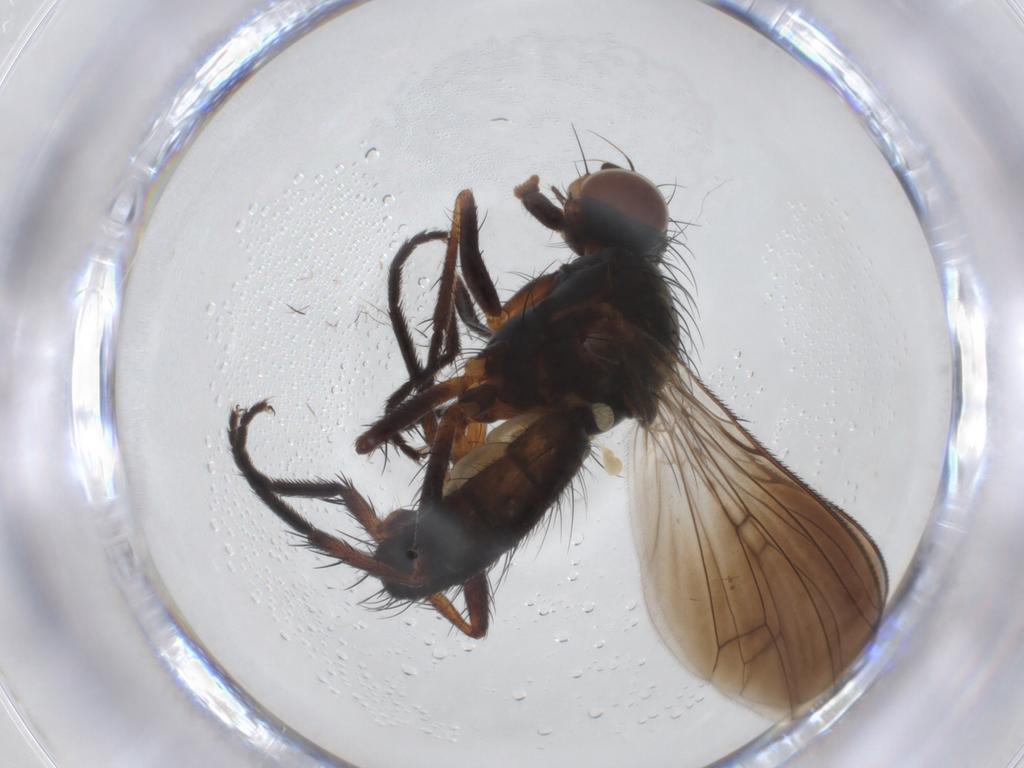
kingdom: Animalia
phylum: Arthropoda
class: Insecta
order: Diptera
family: Anthomyiidae
